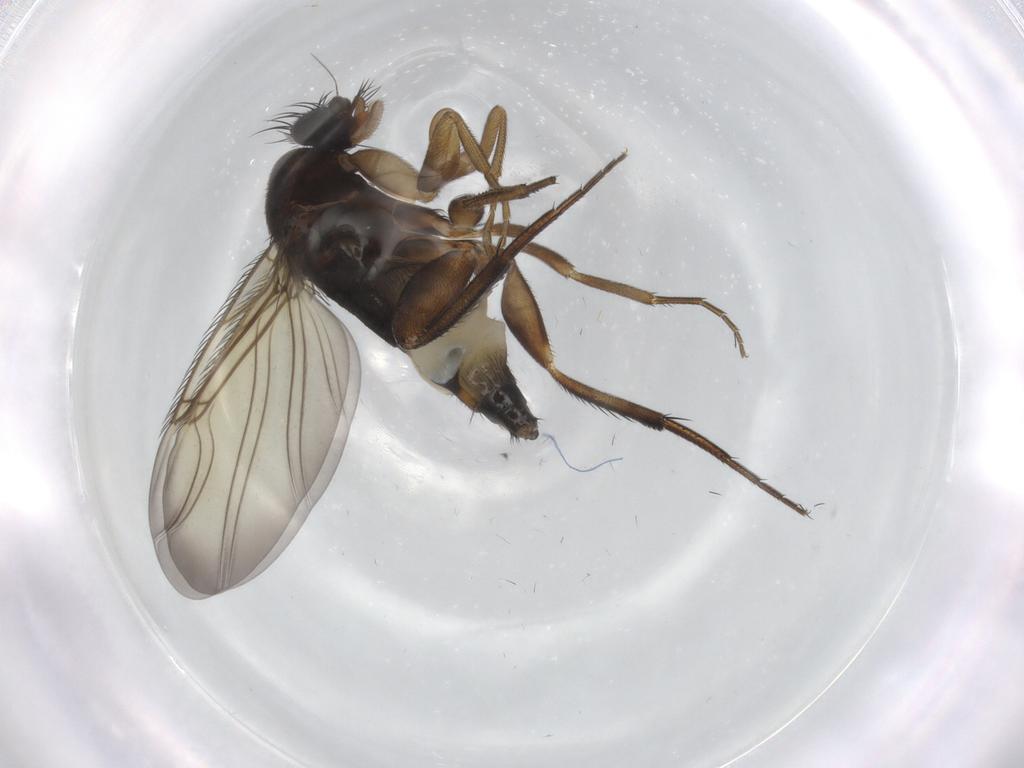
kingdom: Animalia
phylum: Arthropoda
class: Insecta
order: Diptera
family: Phoridae
